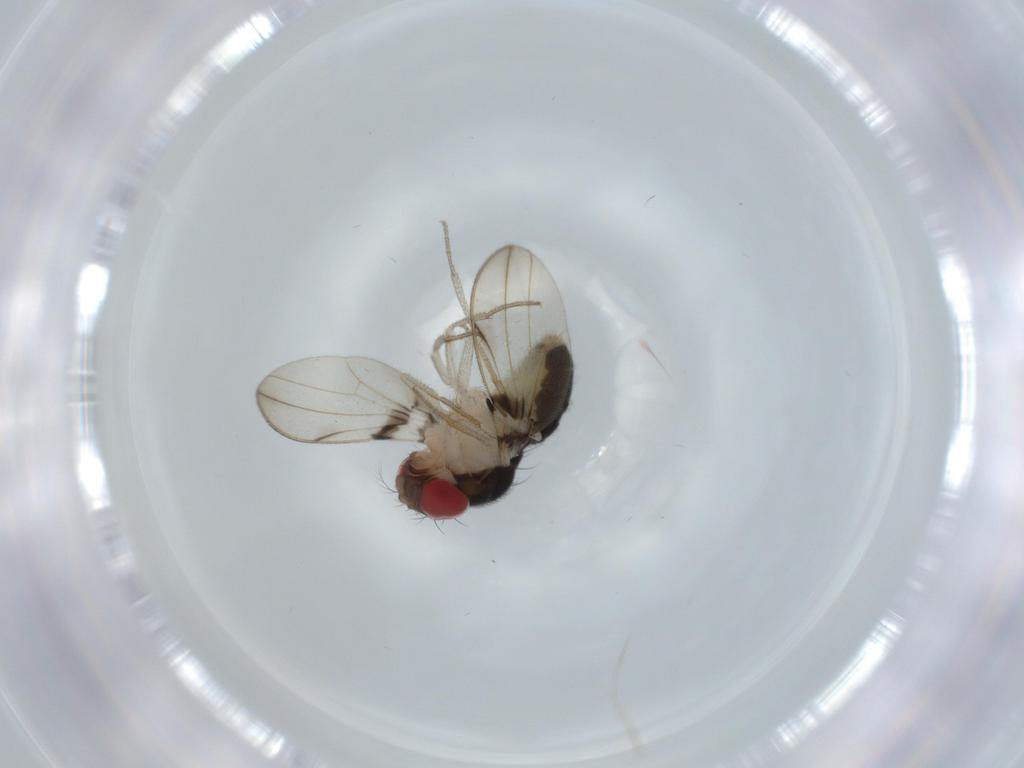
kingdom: Animalia
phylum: Arthropoda
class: Insecta
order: Diptera
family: Drosophilidae
